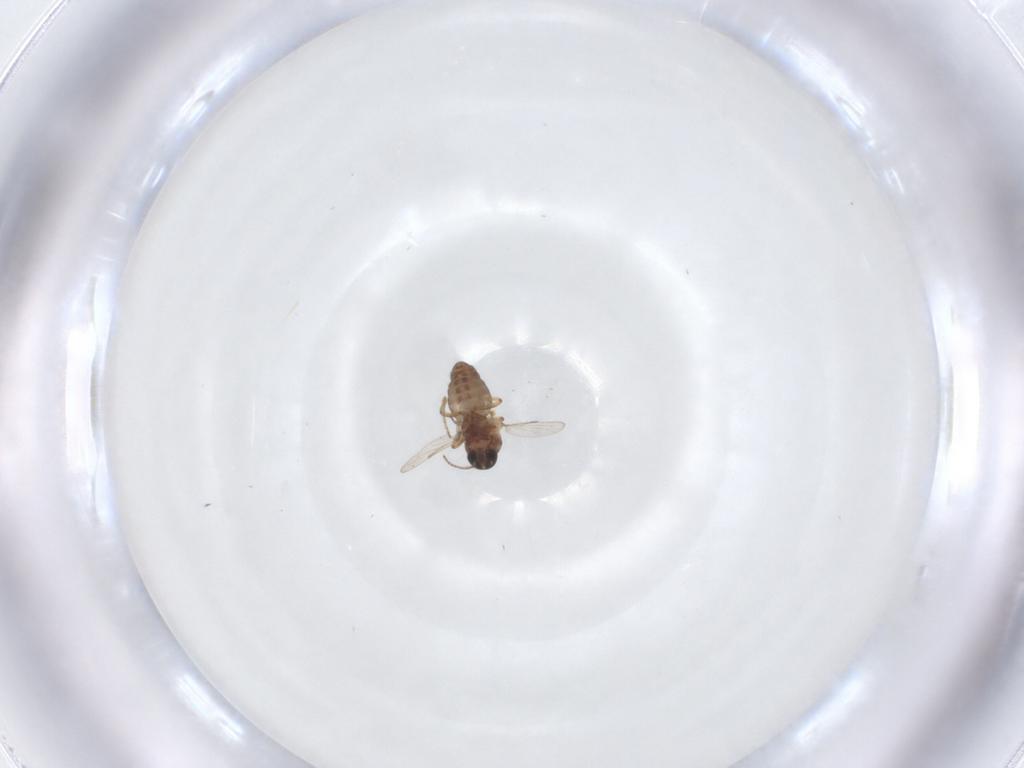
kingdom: Animalia
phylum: Arthropoda
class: Insecta
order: Diptera
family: Ceratopogonidae
